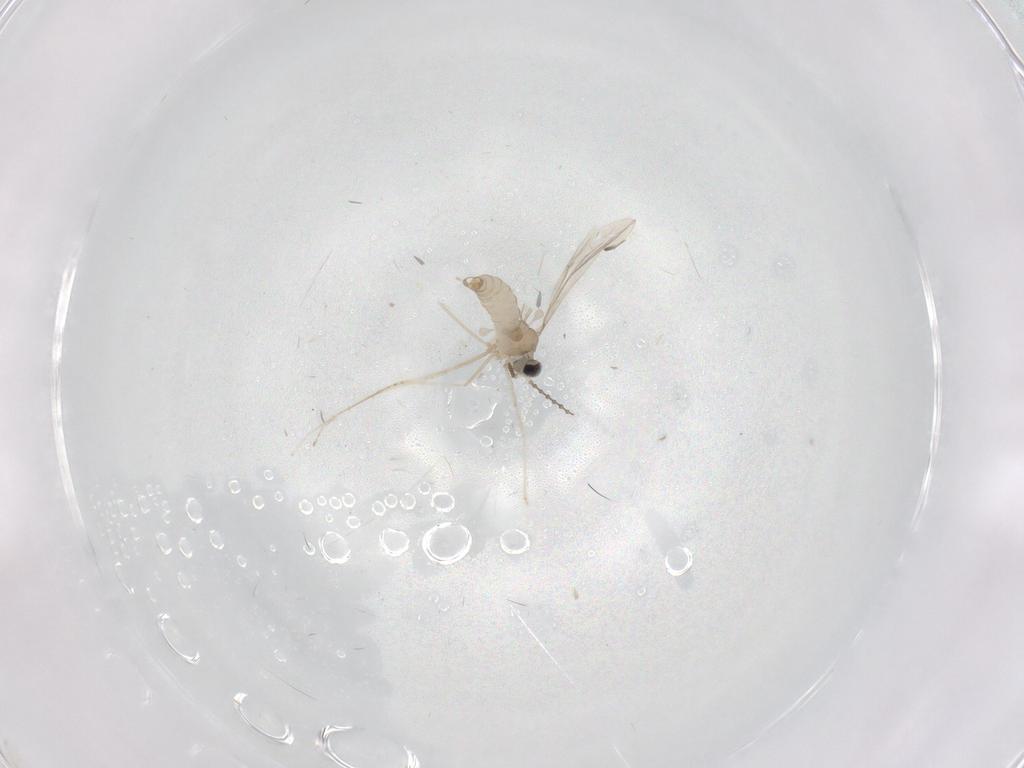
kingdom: Animalia
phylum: Arthropoda
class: Insecta
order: Diptera
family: Cecidomyiidae
